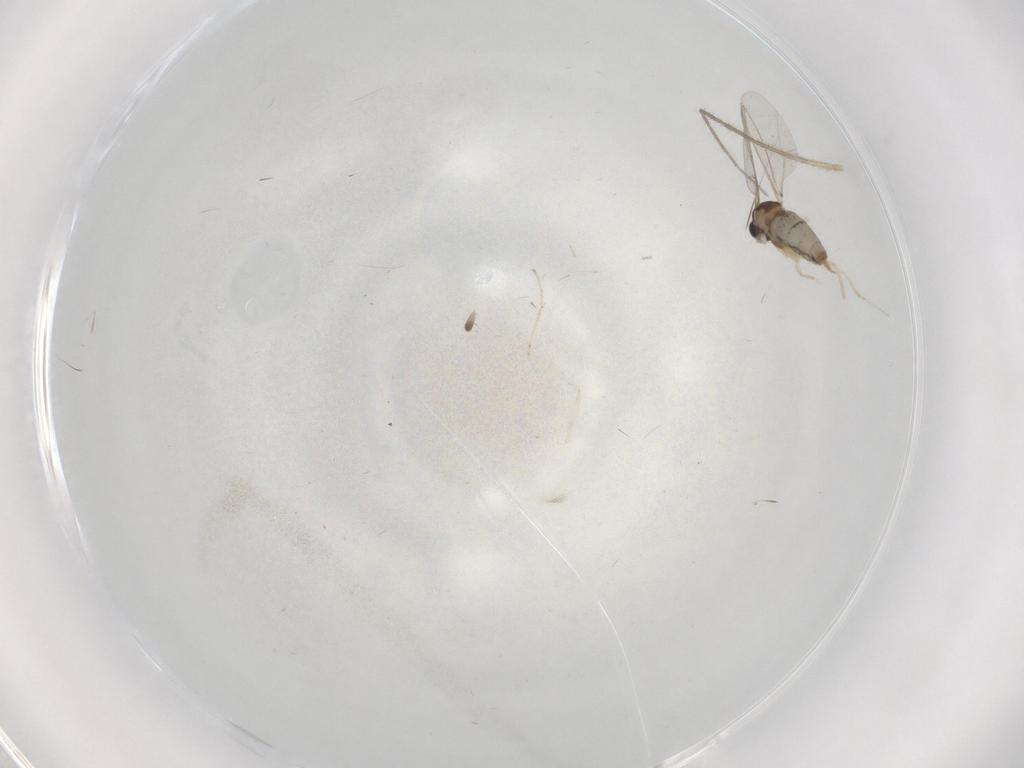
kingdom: Animalia
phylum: Arthropoda
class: Insecta
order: Diptera
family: Cecidomyiidae
